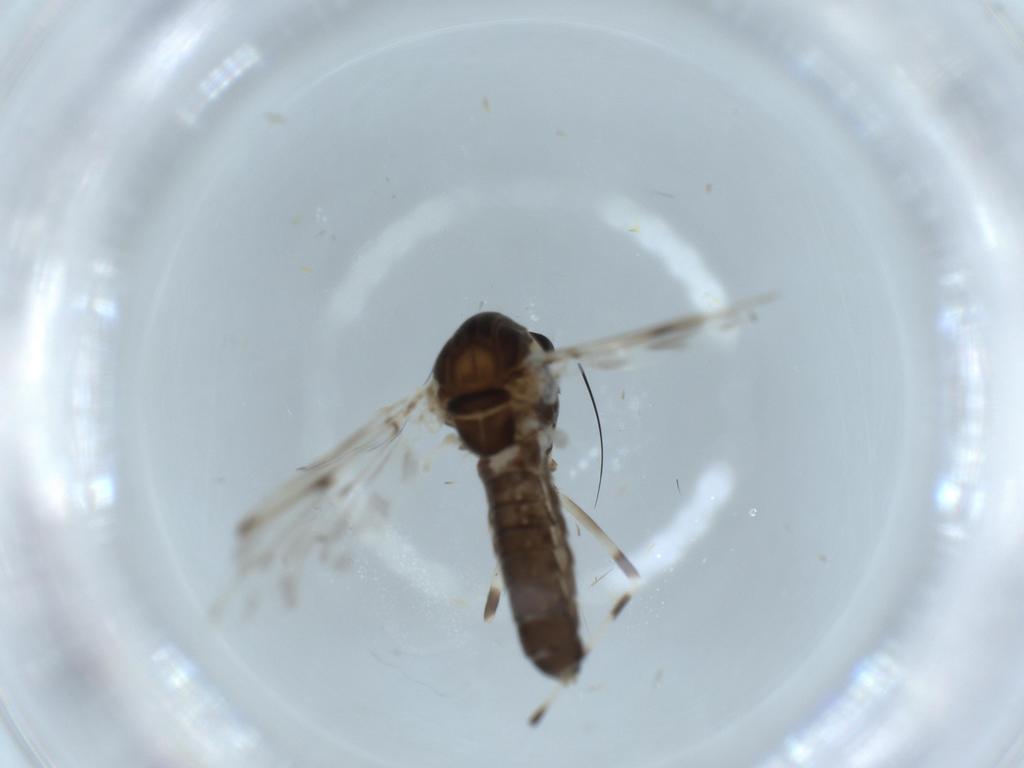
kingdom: Animalia
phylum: Arthropoda
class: Insecta
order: Diptera
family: Chironomidae
